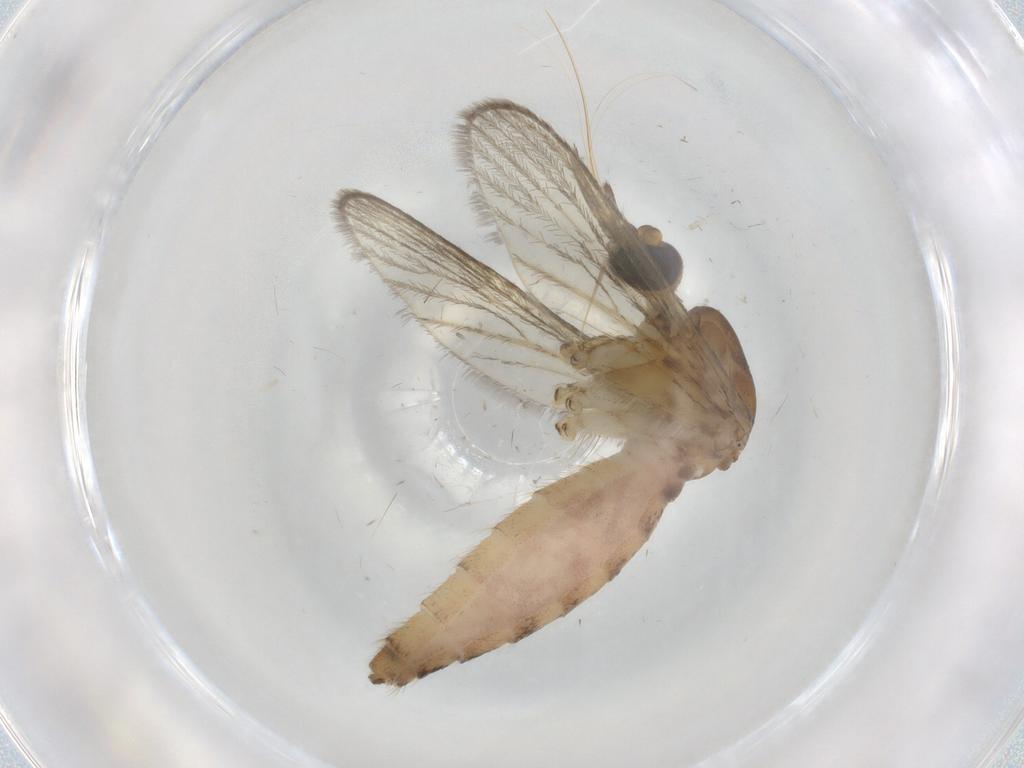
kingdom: Animalia
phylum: Arthropoda
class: Insecta
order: Diptera
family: Culicidae
